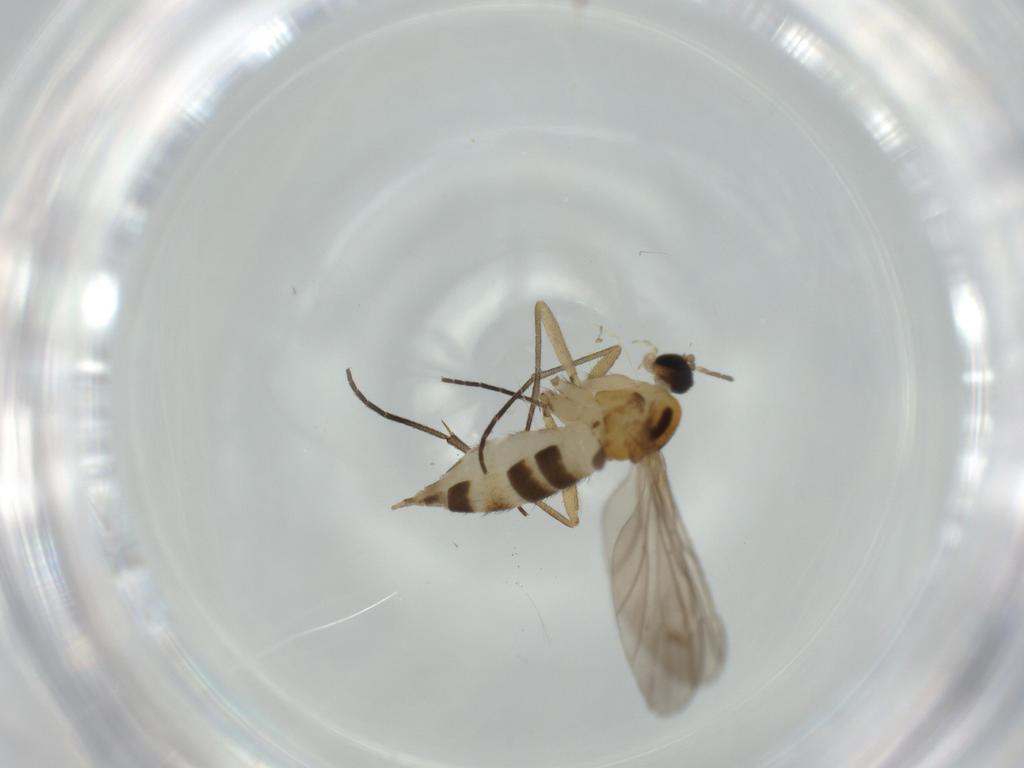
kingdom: Animalia
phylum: Arthropoda
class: Insecta
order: Diptera
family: Sciaridae
